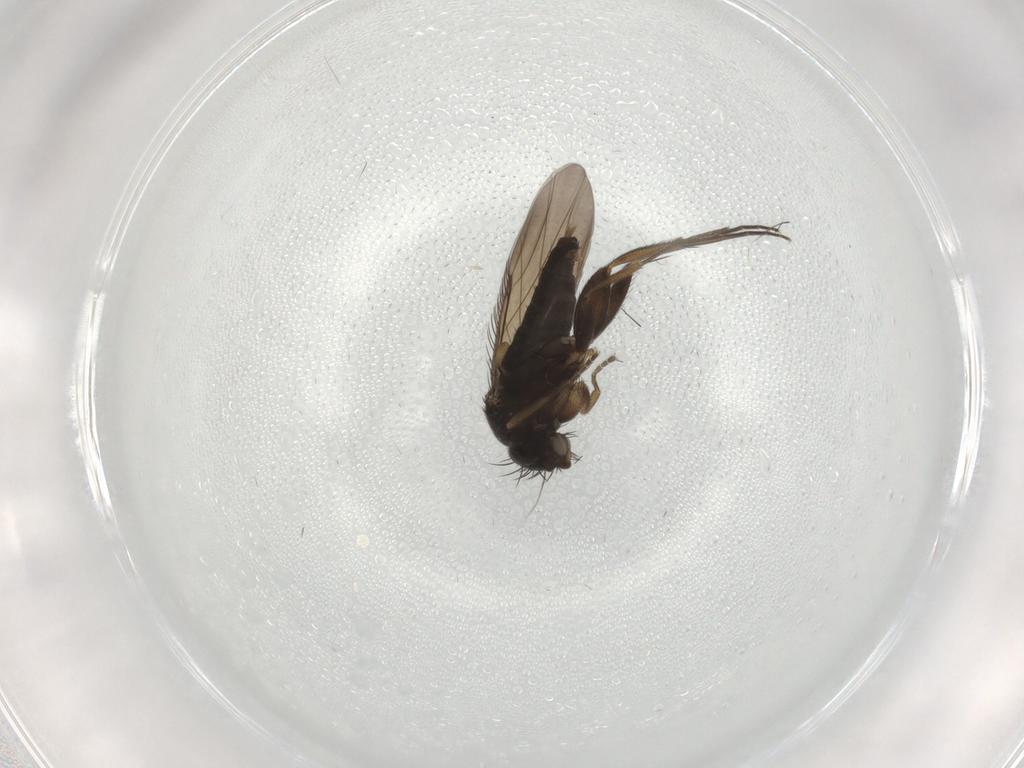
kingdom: Animalia
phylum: Arthropoda
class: Insecta
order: Diptera
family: Phoridae
